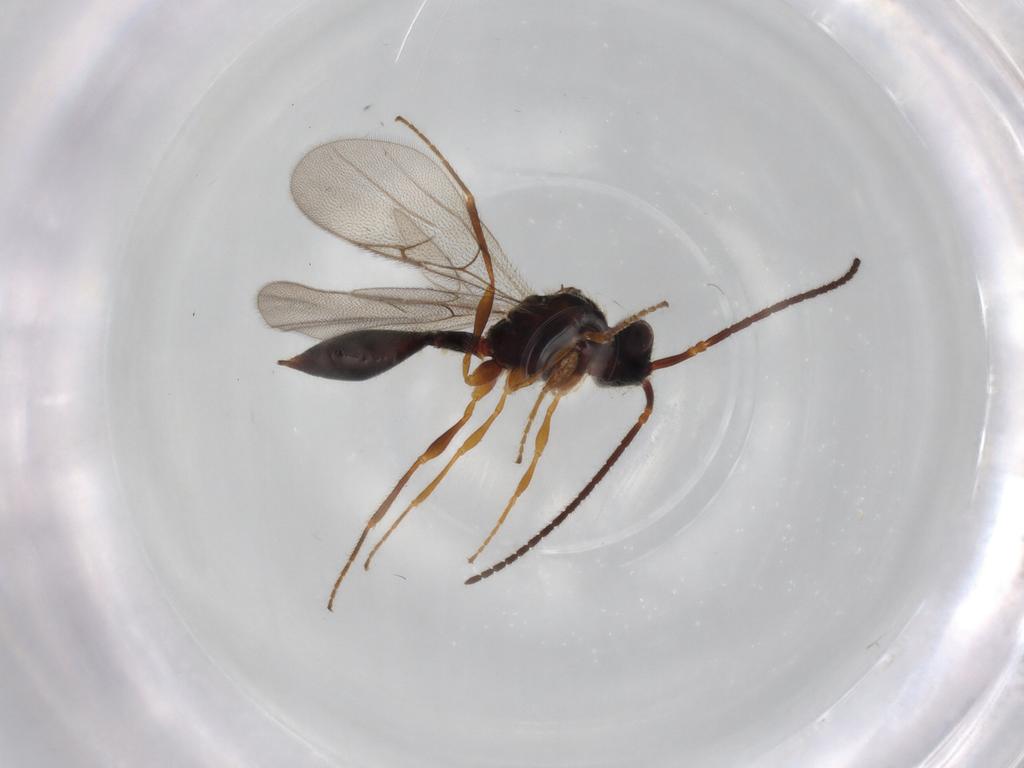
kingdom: Animalia
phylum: Arthropoda
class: Insecta
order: Hymenoptera
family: Diapriidae
